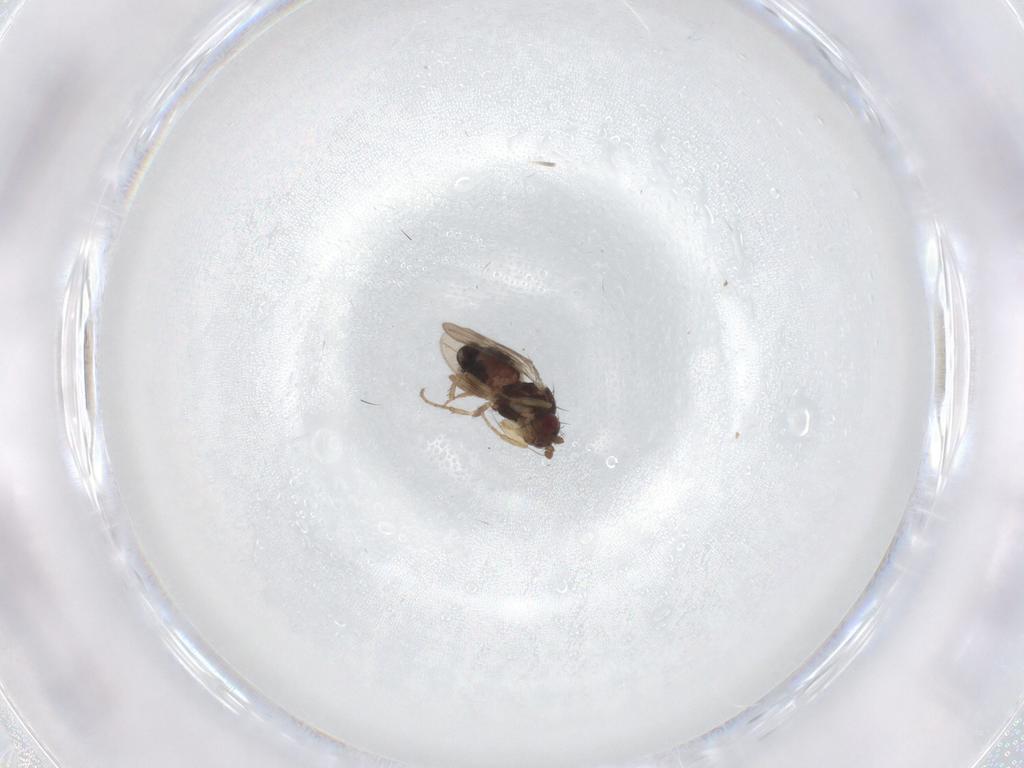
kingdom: Animalia
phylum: Arthropoda
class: Insecta
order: Diptera
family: Sphaeroceridae
